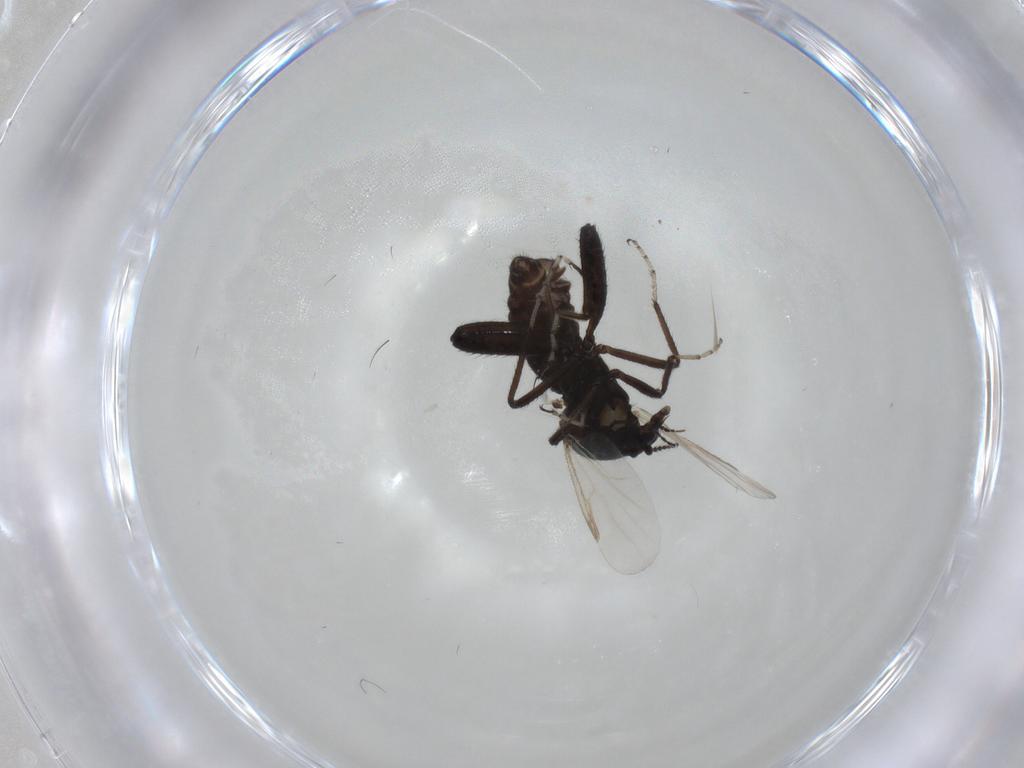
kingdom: Animalia
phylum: Arthropoda
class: Insecta
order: Diptera
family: Ceratopogonidae
